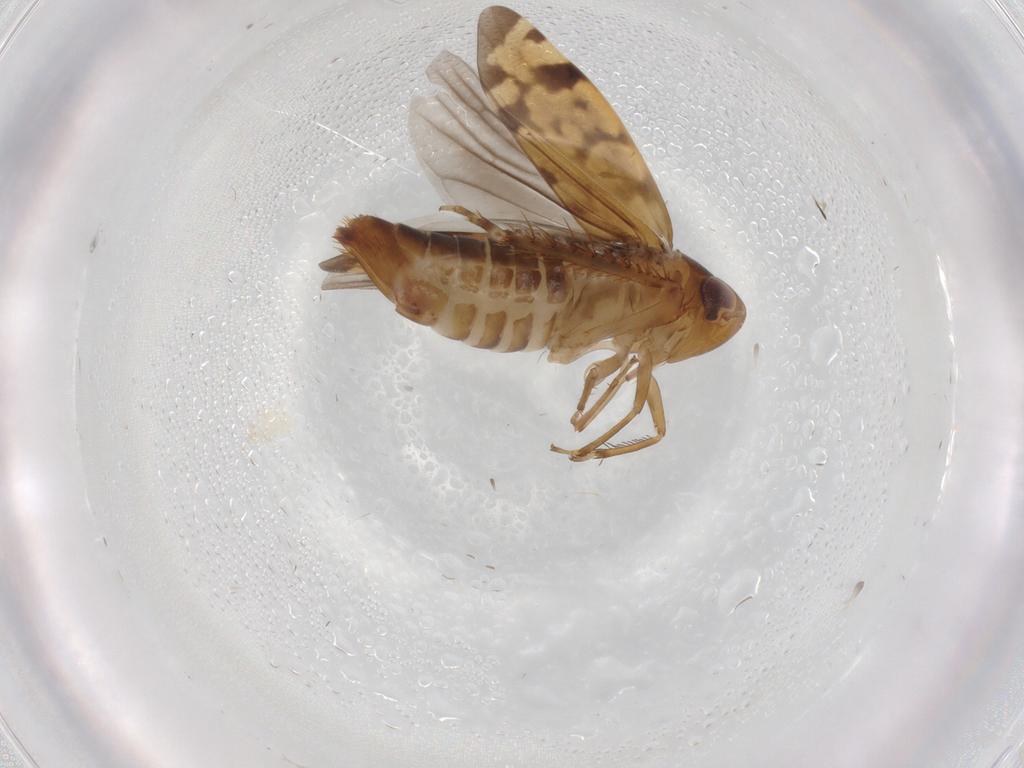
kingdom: Animalia
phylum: Arthropoda
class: Insecta
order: Hemiptera
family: Cicadellidae
